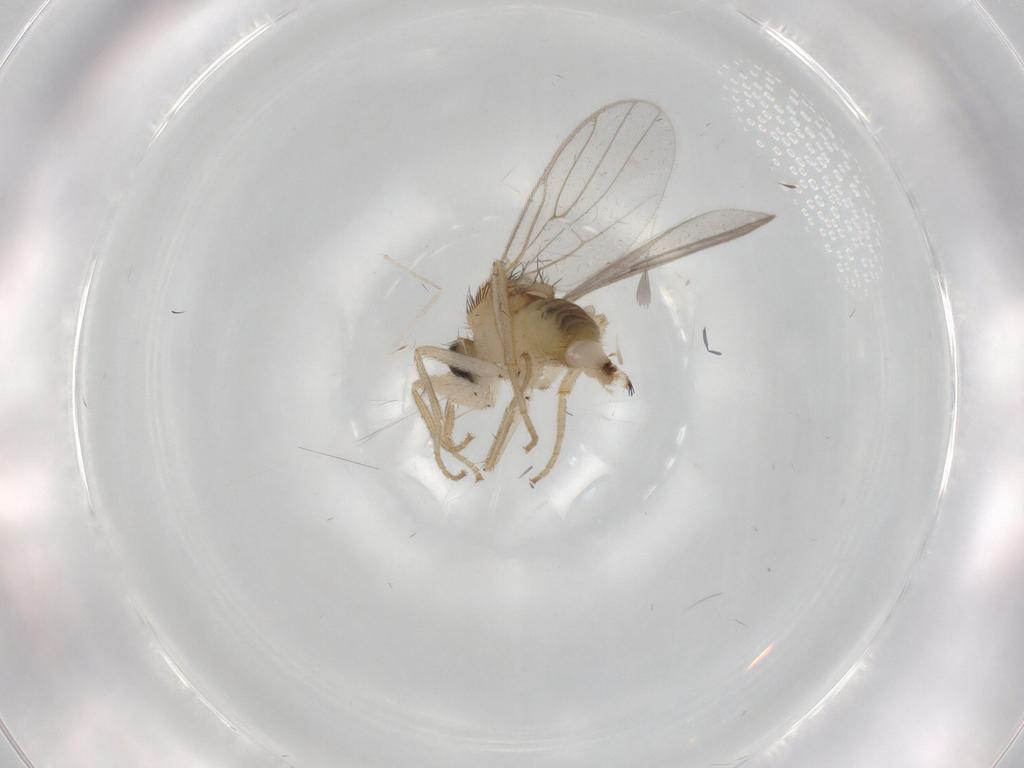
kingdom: Animalia
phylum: Arthropoda
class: Insecta
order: Diptera
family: Hybotidae
